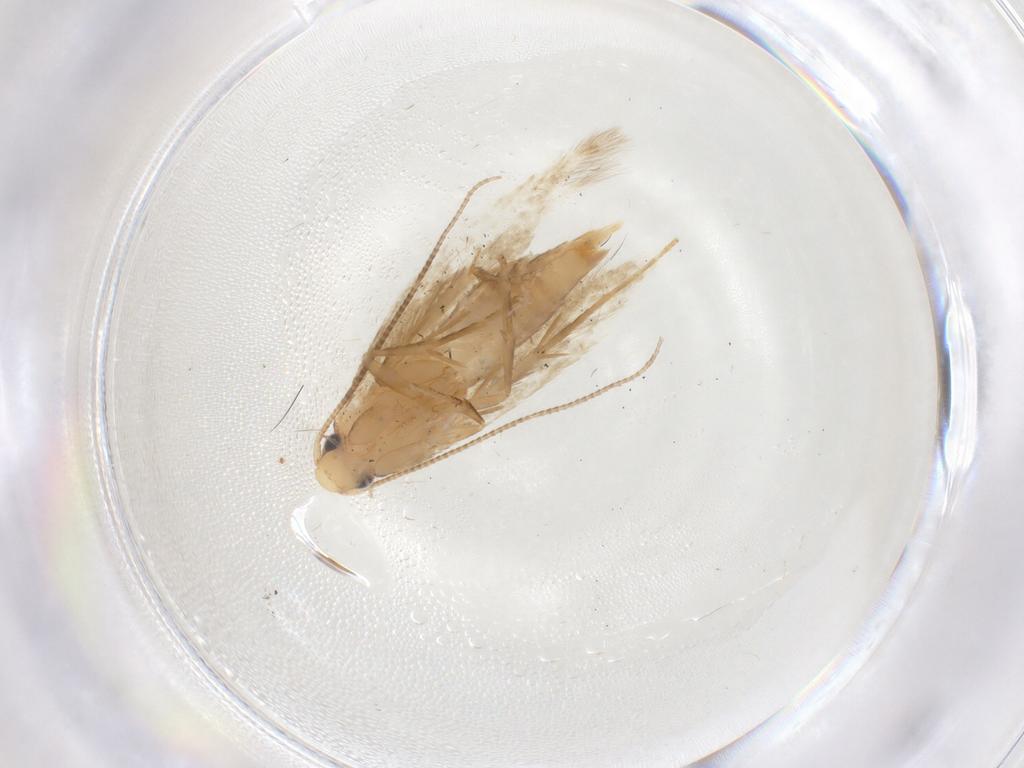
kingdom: Animalia
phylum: Arthropoda
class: Insecta
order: Lepidoptera
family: Tineidae
